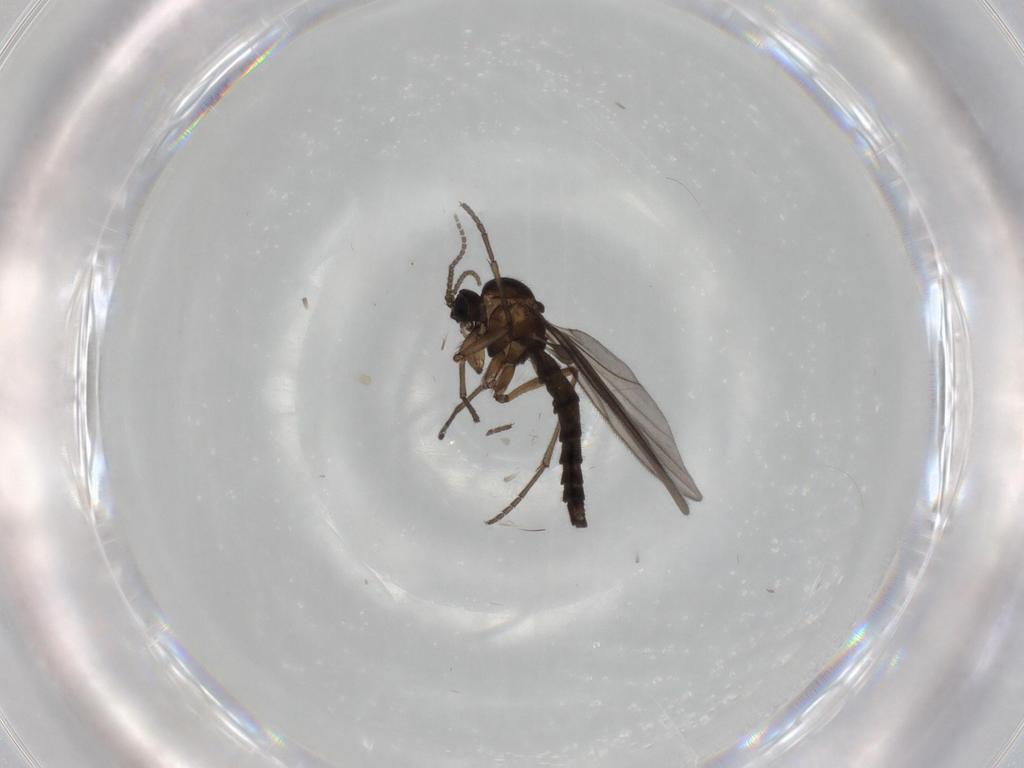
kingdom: Animalia
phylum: Arthropoda
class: Insecta
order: Diptera
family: Sciaridae
